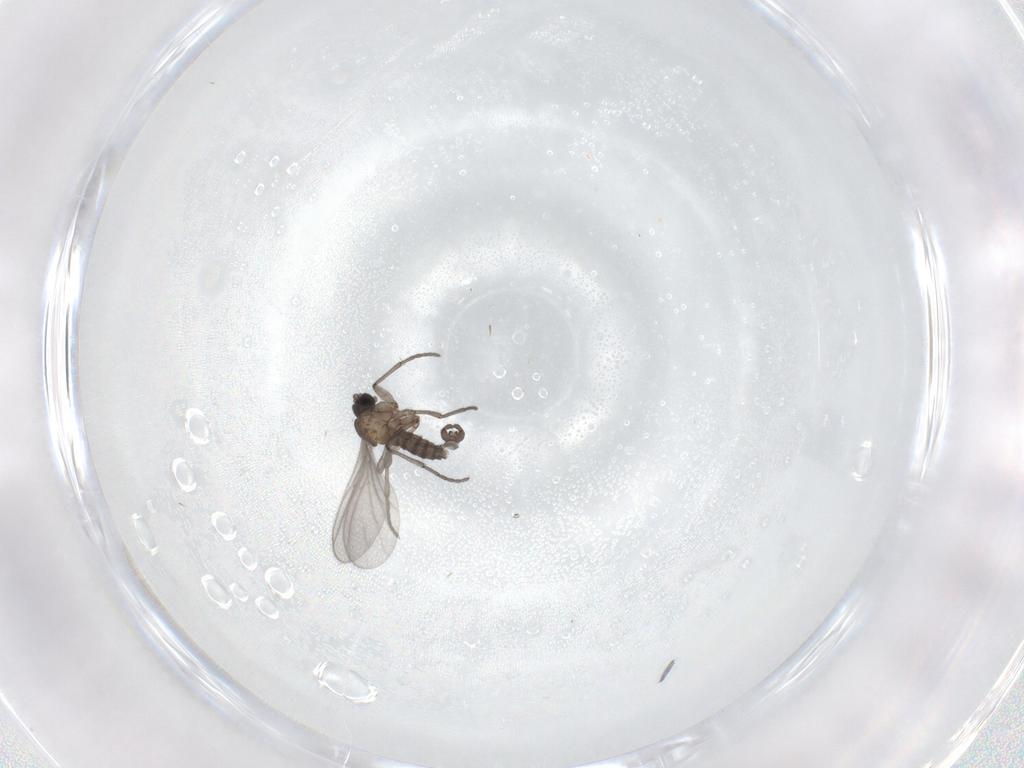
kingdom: Animalia
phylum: Arthropoda
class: Insecta
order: Diptera
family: Sciaridae
